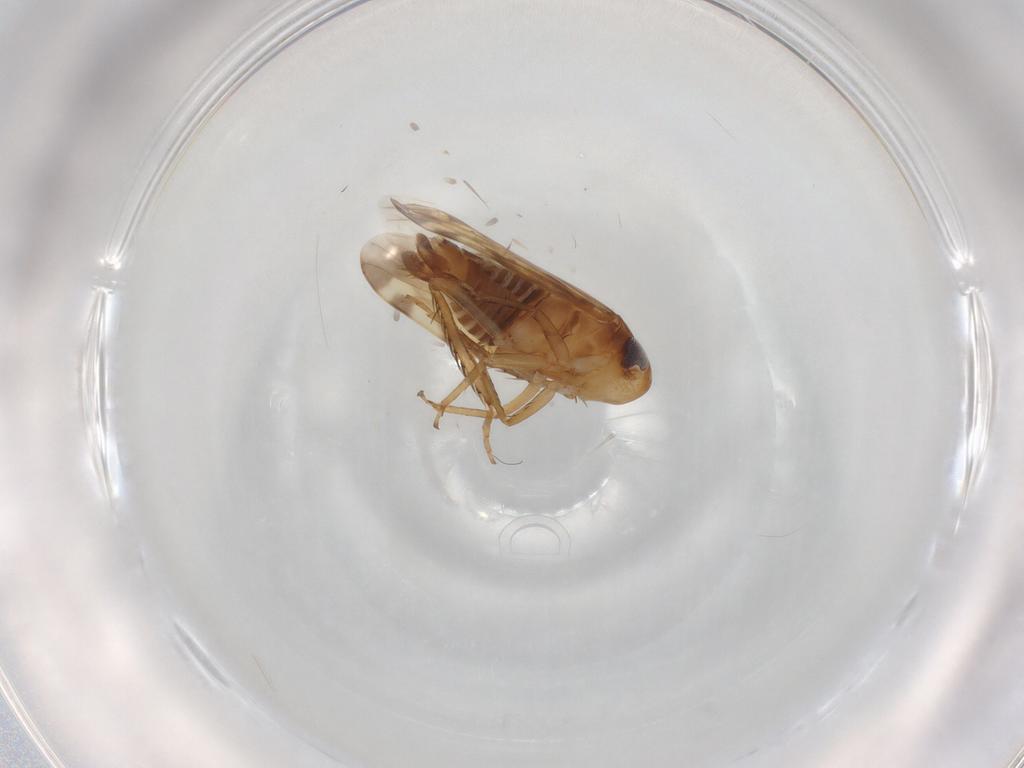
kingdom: Animalia
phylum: Arthropoda
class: Insecta
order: Hemiptera
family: Cicadellidae
